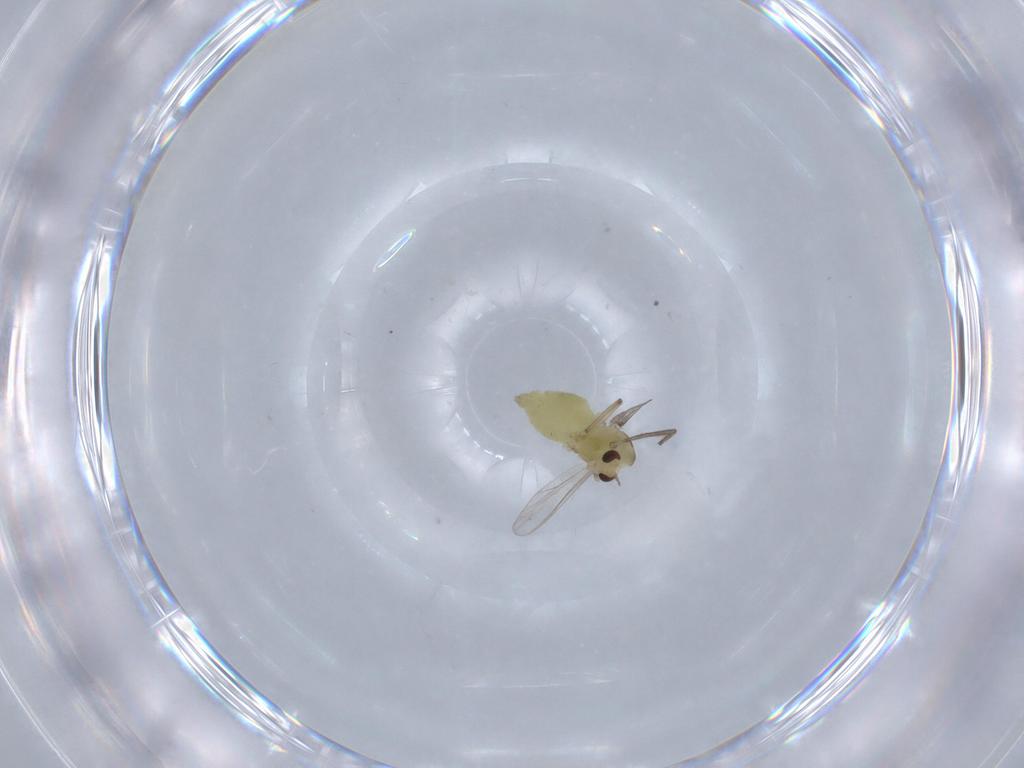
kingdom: Animalia
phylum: Arthropoda
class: Insecta
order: Diptera
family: Chironomidae
